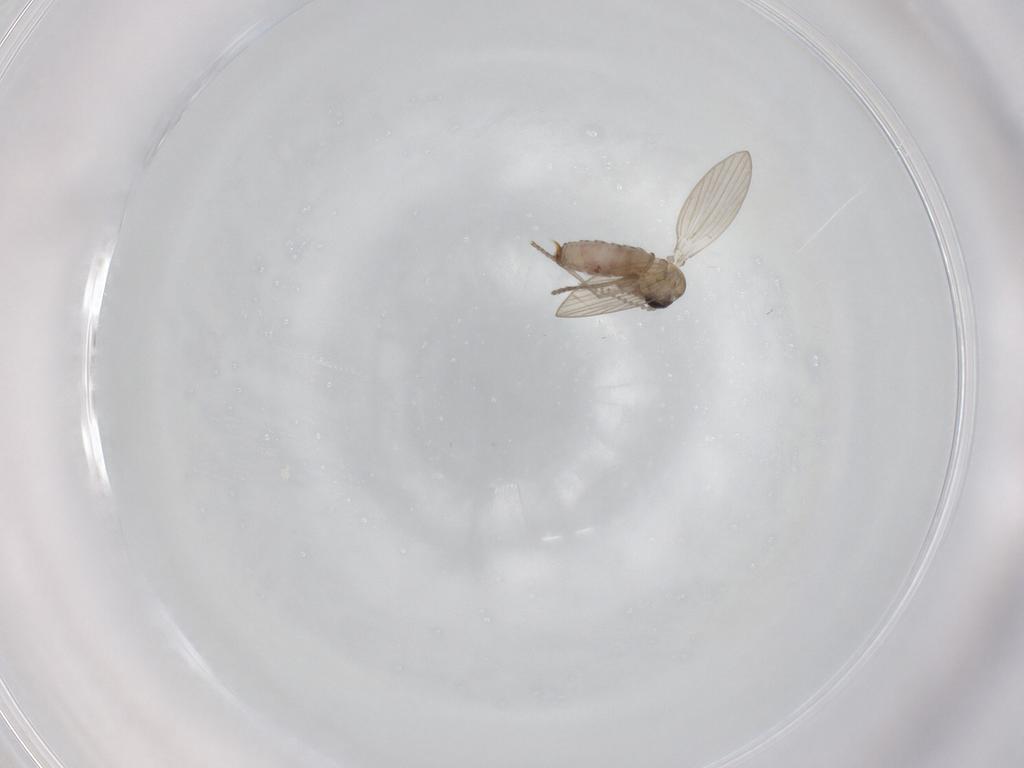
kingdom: Animalia
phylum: Arthropoda
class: Insecta
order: Diptera
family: Psychodidae
